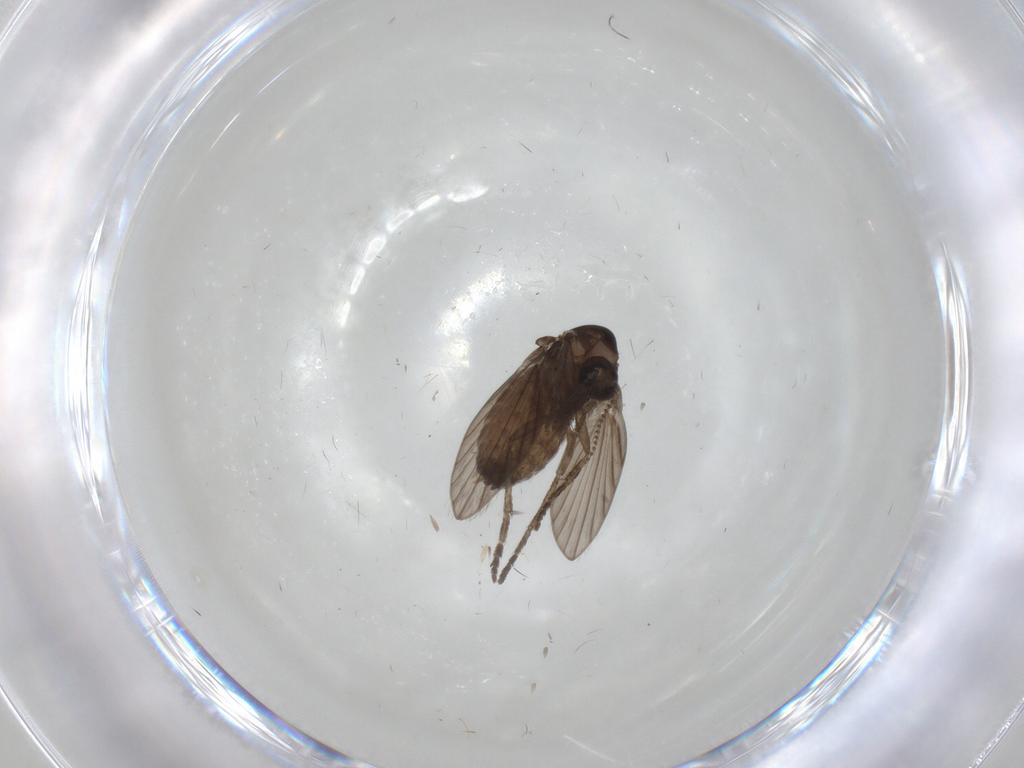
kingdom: Animalia
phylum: Arthropoda
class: Insecta
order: Diptera
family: Psychodidae
